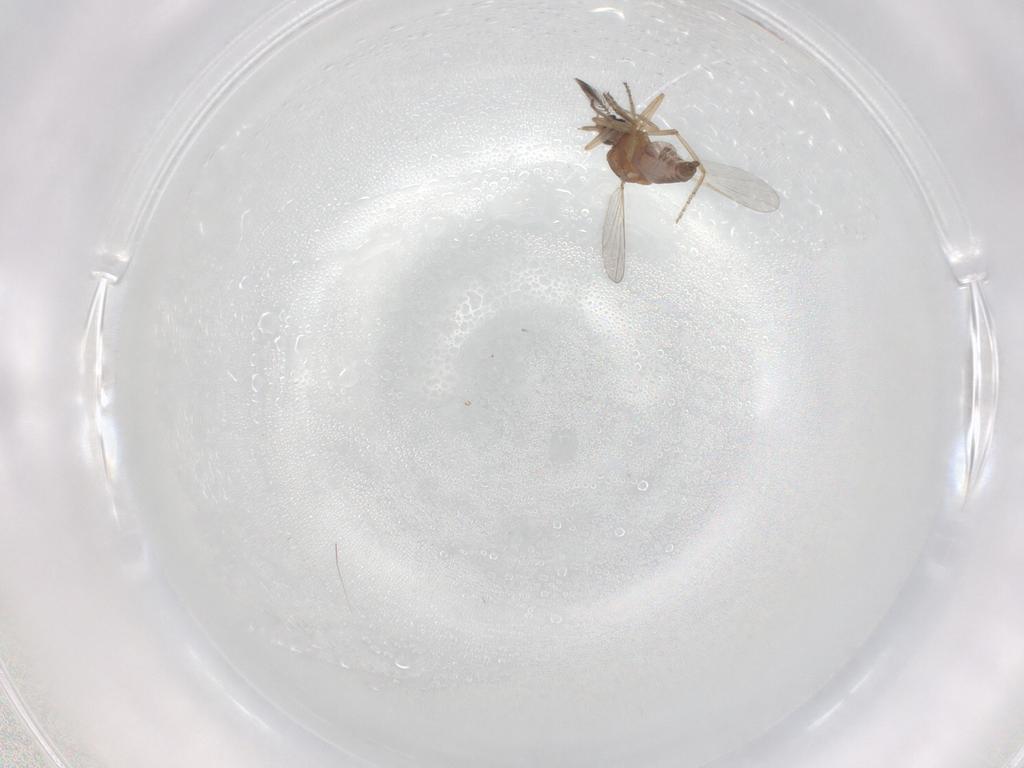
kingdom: Animalia
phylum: Arthropoda
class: Insecta
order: Diptera
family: Ceratopogonidae
